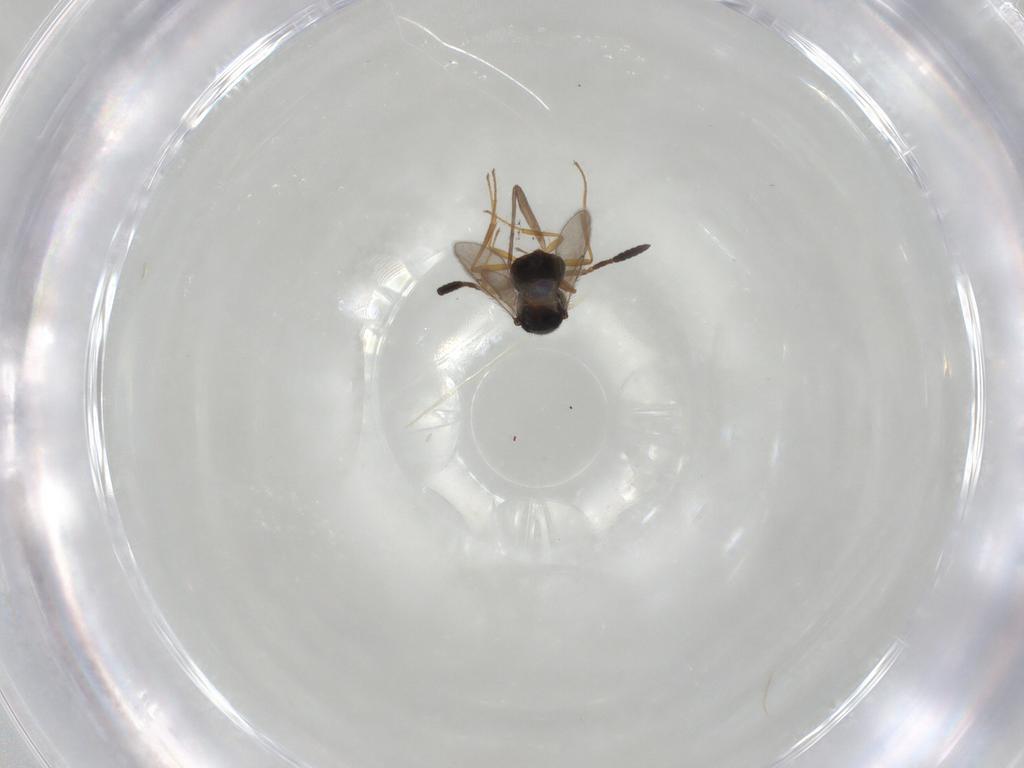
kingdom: Animalia
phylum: Arthropoda
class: Insecta
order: Hymenoptera
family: Scelionidae
